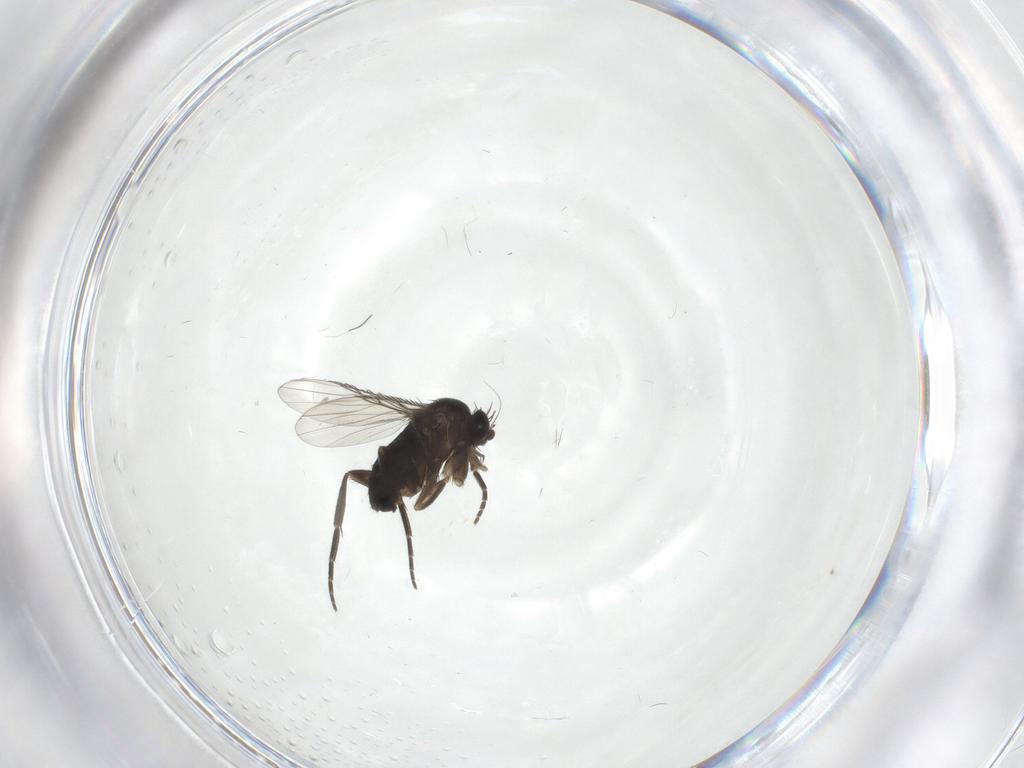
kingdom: Animalia
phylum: Arthropoda
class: Insecta
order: Diptera
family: Phoridae
